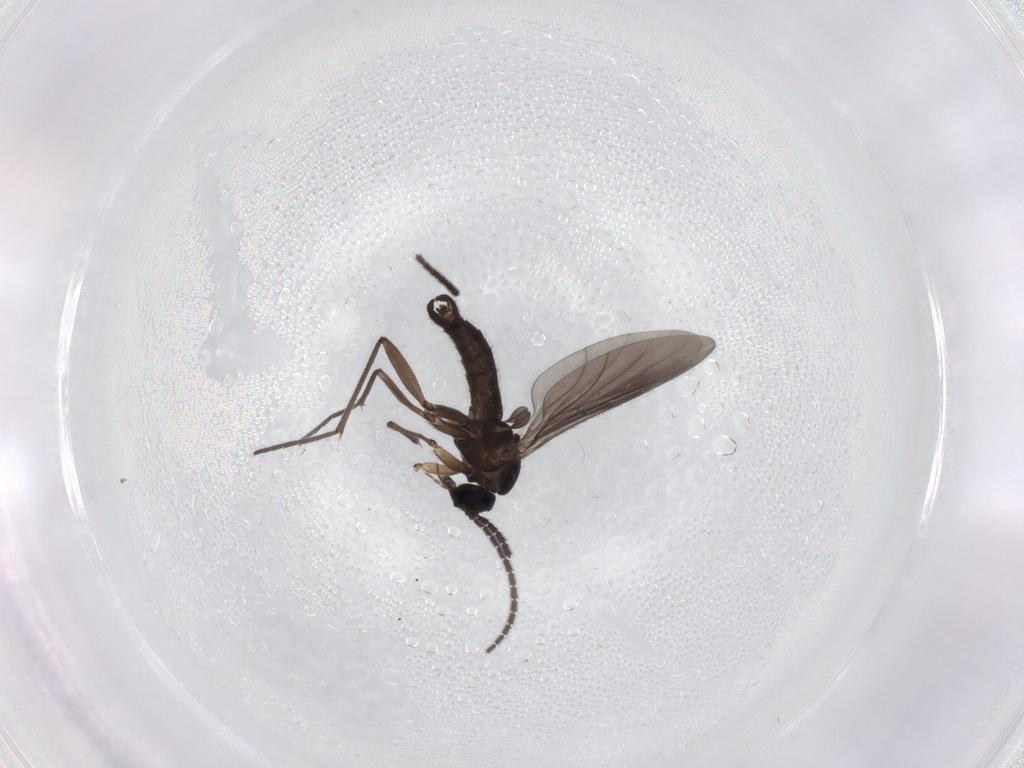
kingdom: Animalia
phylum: Arthropoda
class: Insecta
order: Diptera
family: Sciaridae
